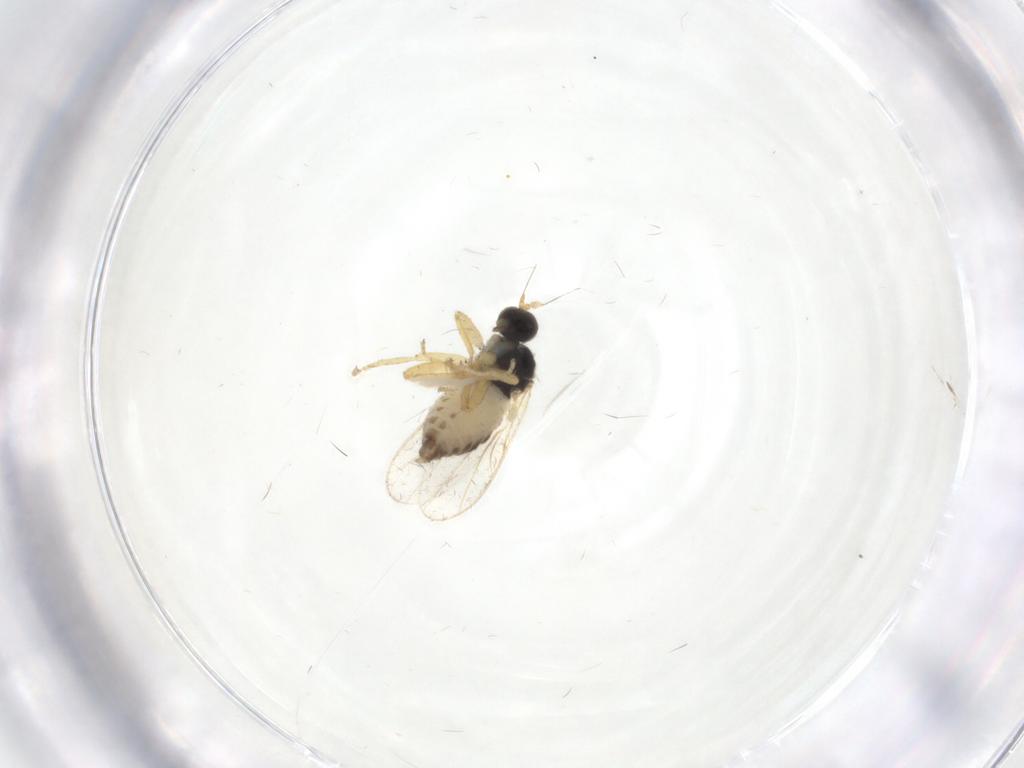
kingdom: Animalia
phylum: Arthropoda
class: Insecta
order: Diptera
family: Hybotidae
